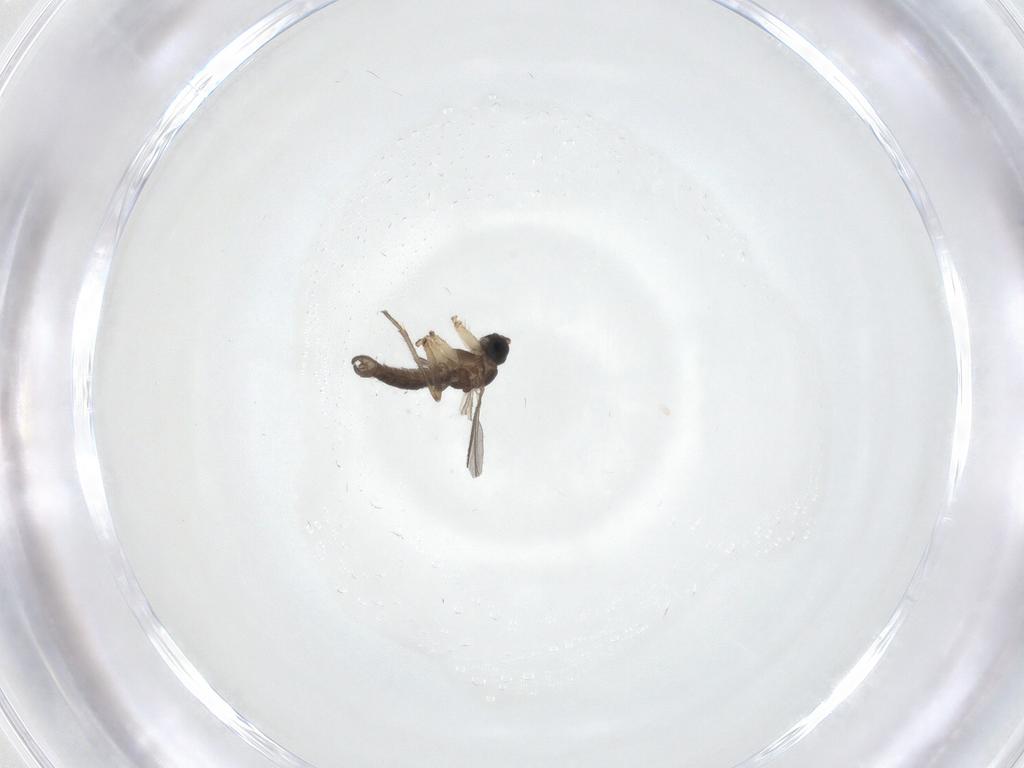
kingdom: Animalia
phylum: Arthropoda
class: Insecta
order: Diptera
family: Sciaridae
